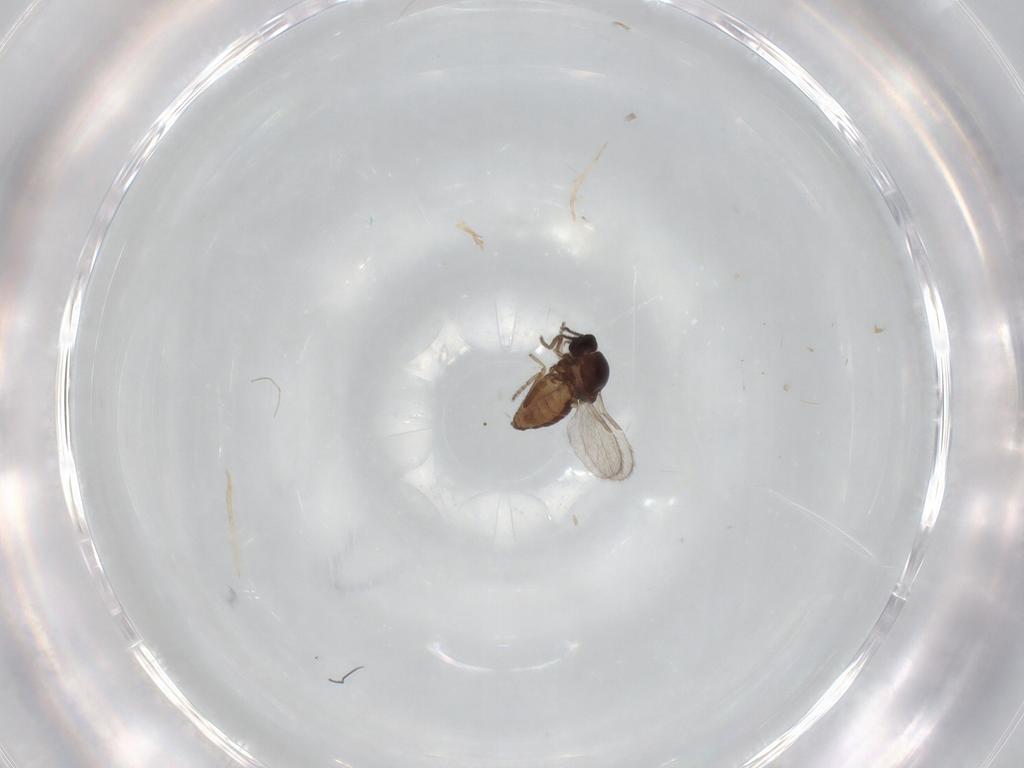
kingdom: Animalia
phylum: Arthropoda
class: Insecta
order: Diptera
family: Ceratopogonidae
